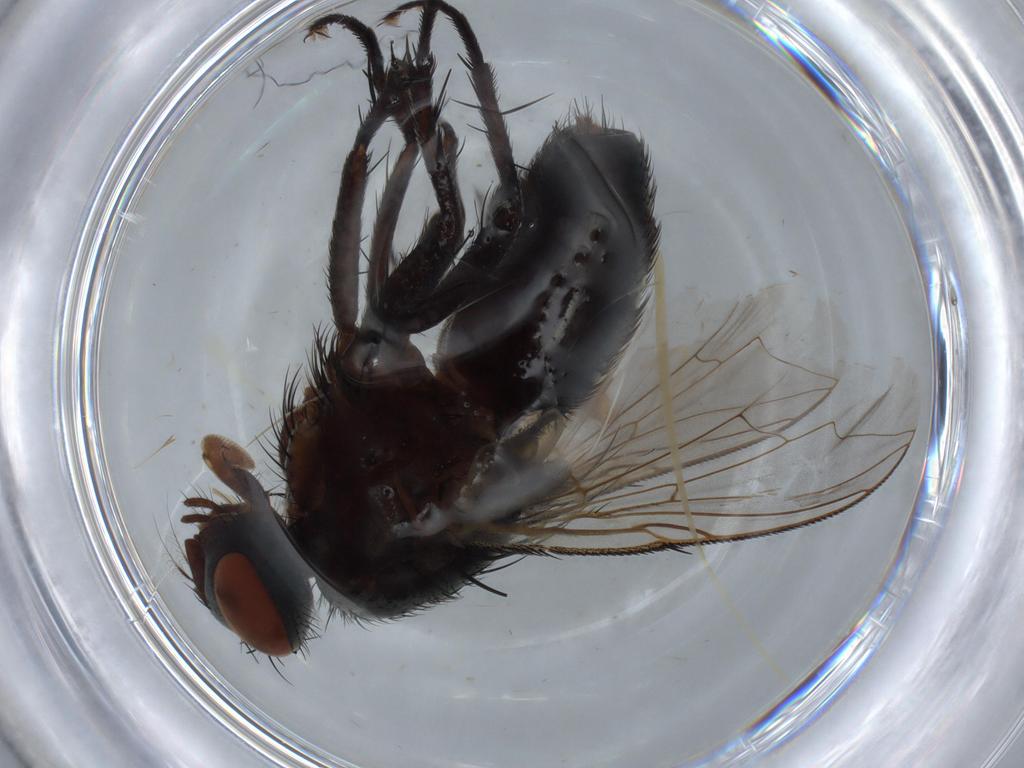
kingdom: Animalia
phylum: Arthropoda
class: Insecta
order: Diptera
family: Sarcophagidae
